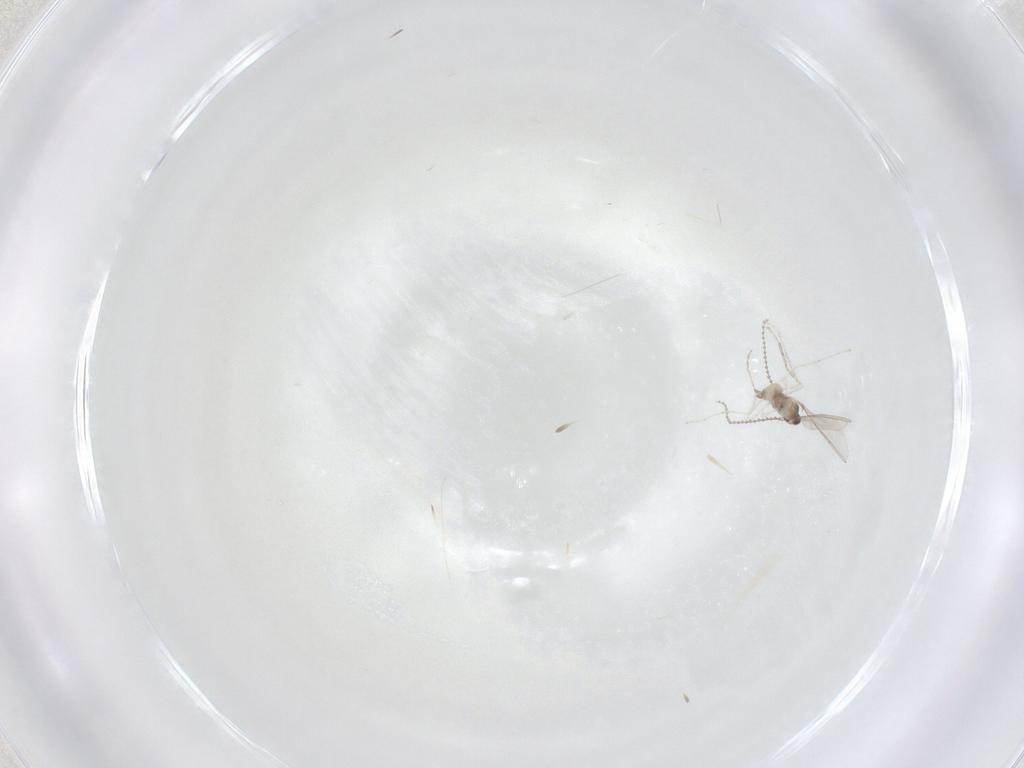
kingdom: Animalia
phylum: Arthropoda
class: Insecta
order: Diptera
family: Cecidomyiidae
